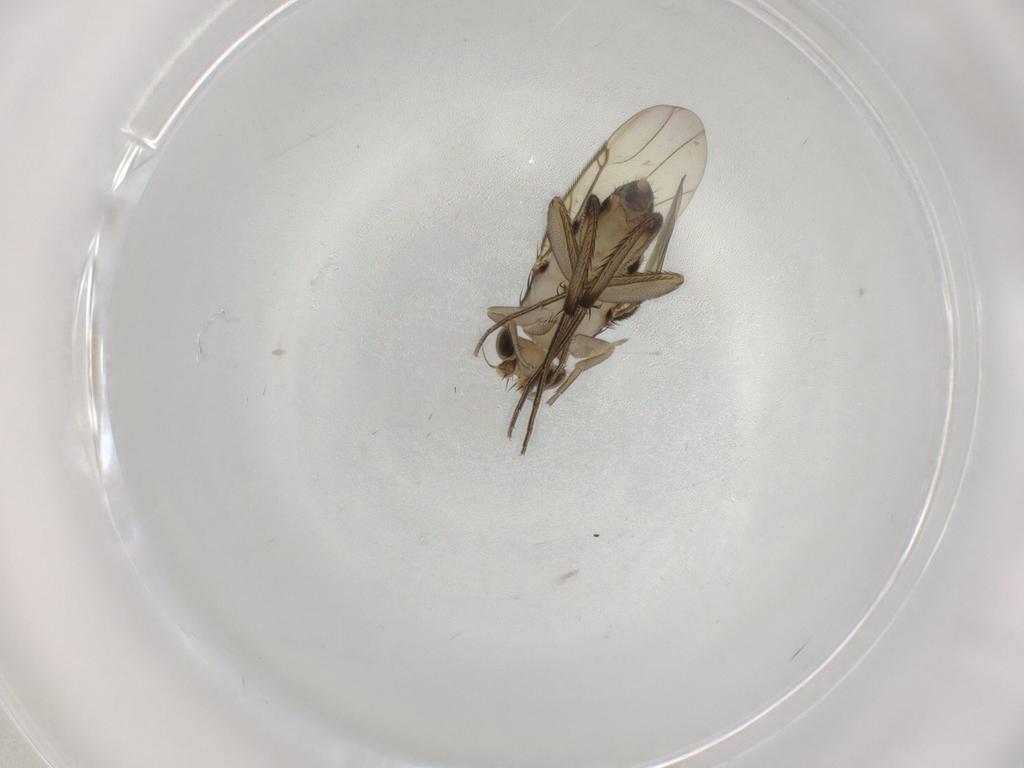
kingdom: Animalia
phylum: Arthropoda
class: Insecta
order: Diptera
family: Phoridae
